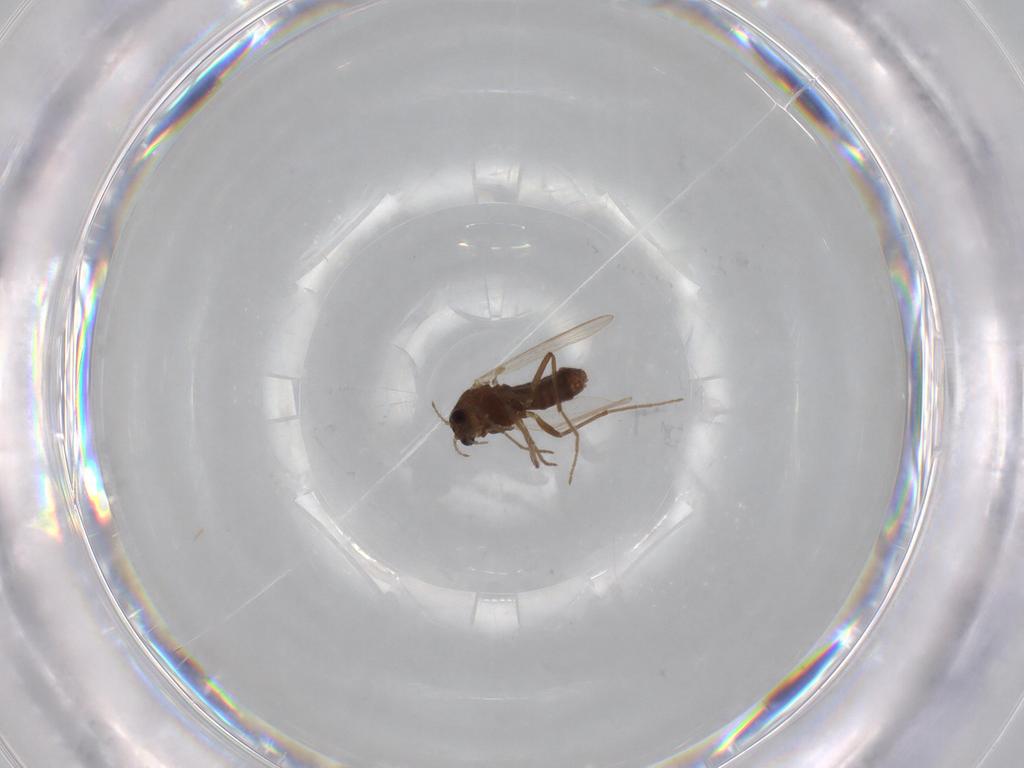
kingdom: Animalia
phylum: Arthropoda
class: Insecta
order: Diptera
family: Chironomidae
